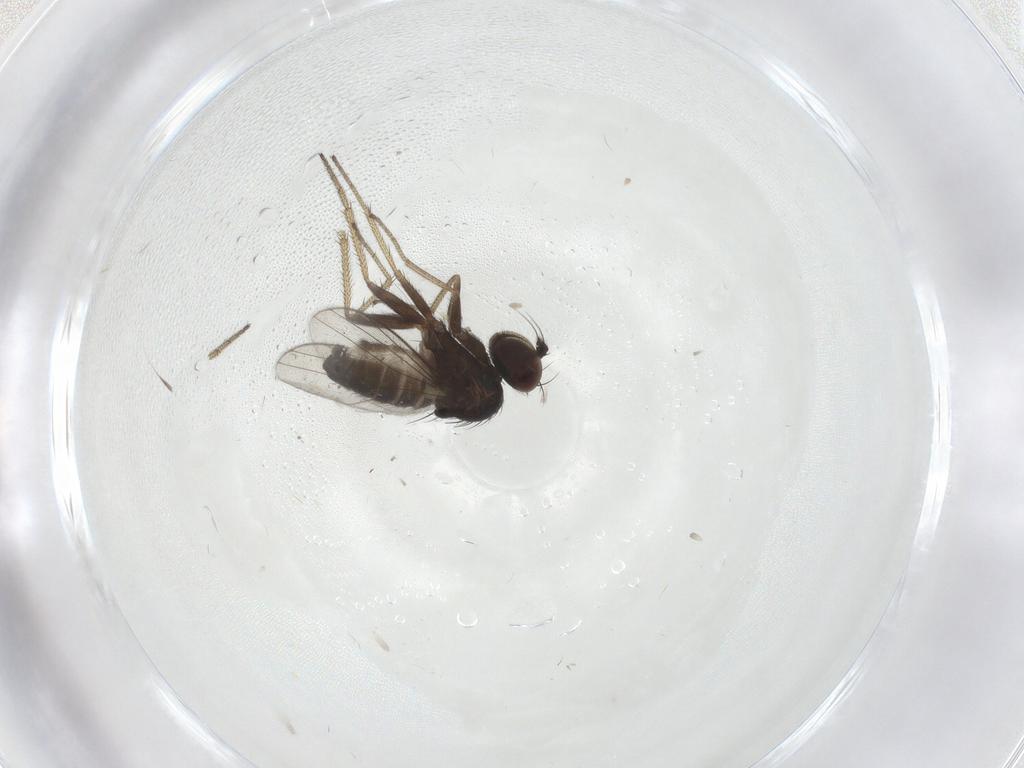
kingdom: Animalia
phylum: Arthropoda
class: Insecta
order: Diptera
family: Dolichopodidae
